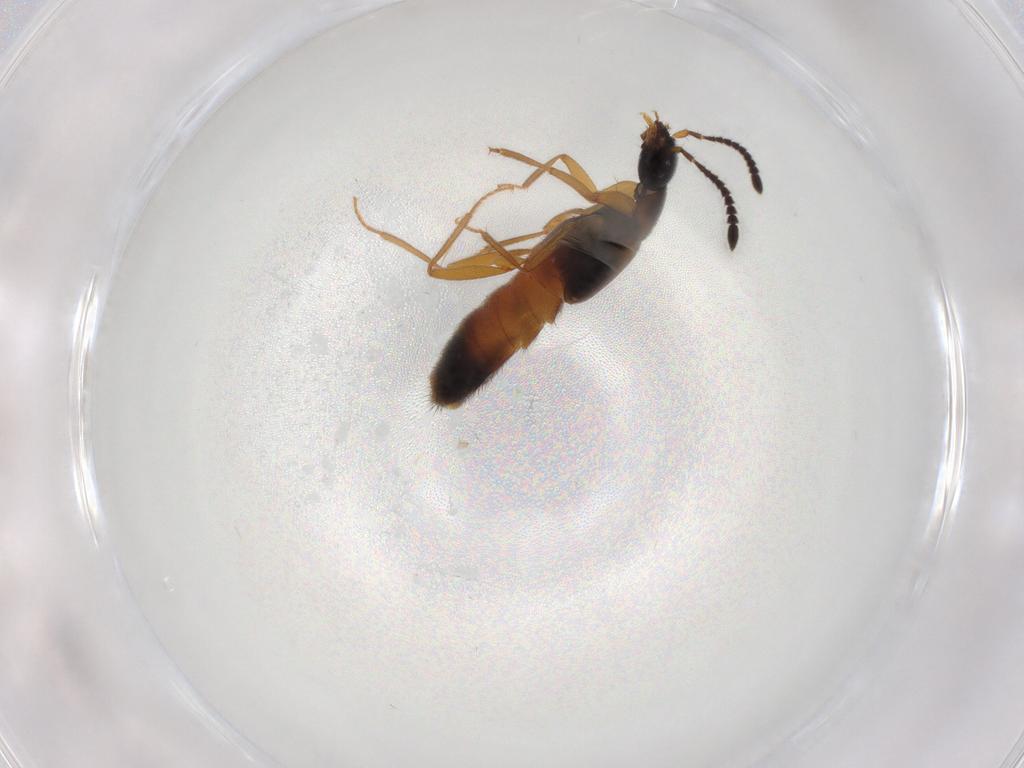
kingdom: Animalia
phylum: Arthropoda
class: Insecta
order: Coleoptera
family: Staphylinidae
